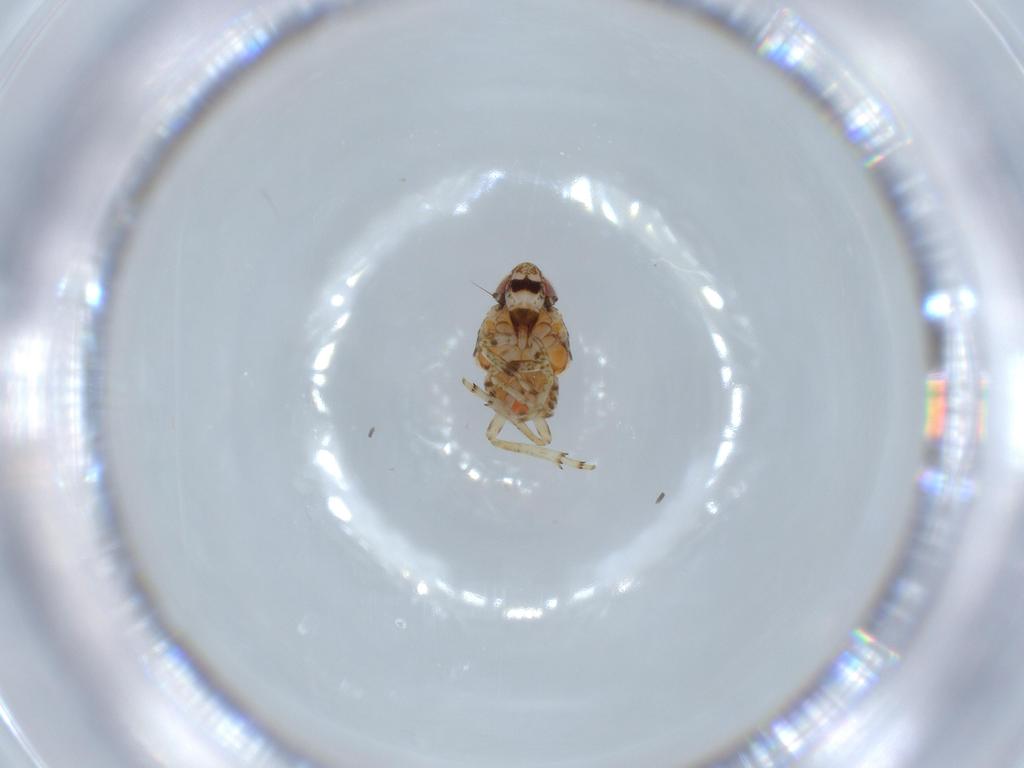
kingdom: Animalia
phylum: Arthropoda
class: Insecta
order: Hemiptera
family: Issidae
